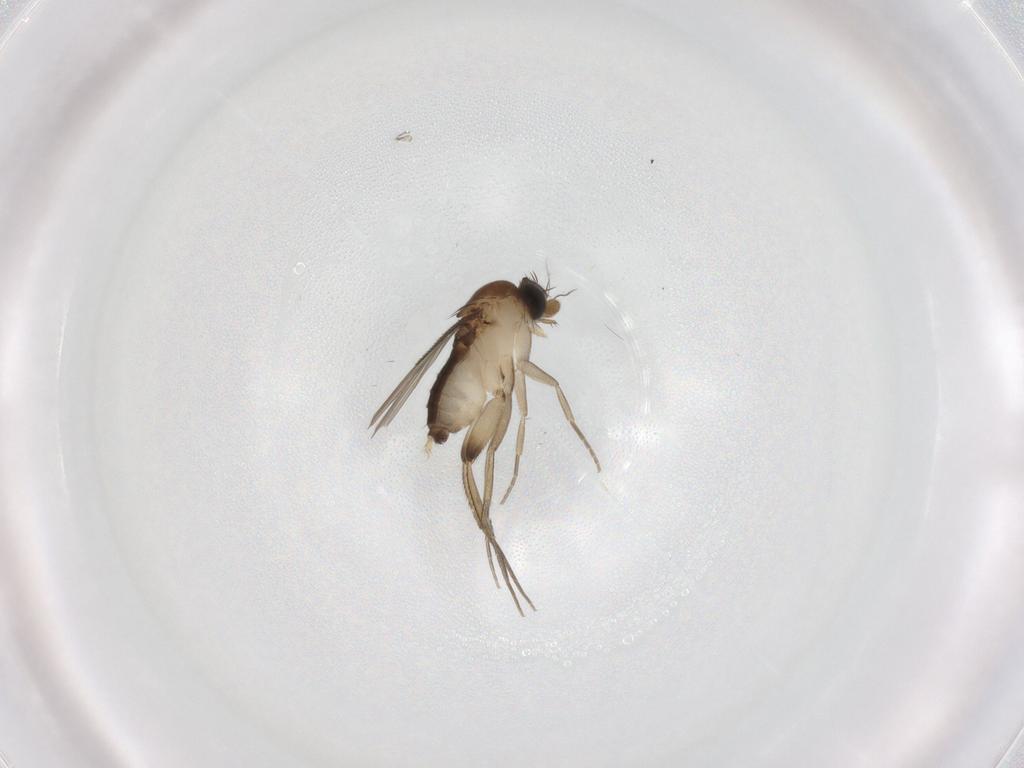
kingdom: Animalia
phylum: Arthropoda
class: Insecta
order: Diptera
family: Phoridae
